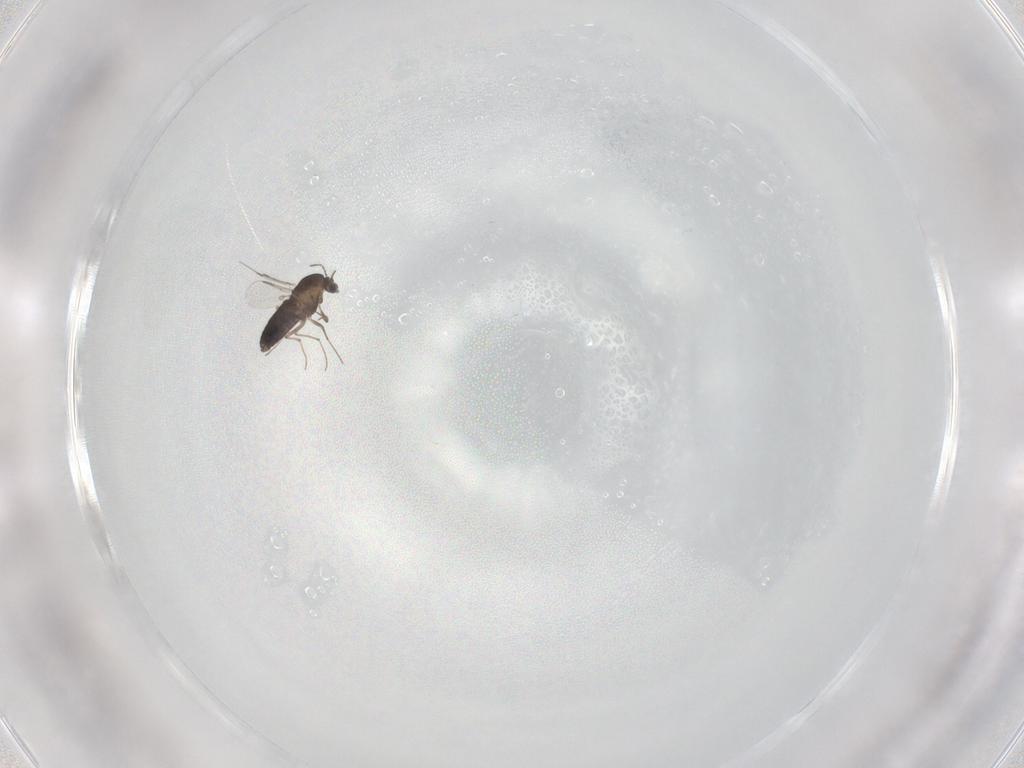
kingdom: Animalia
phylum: Arthropoda
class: Insecta
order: Diptera
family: Chironomidae
